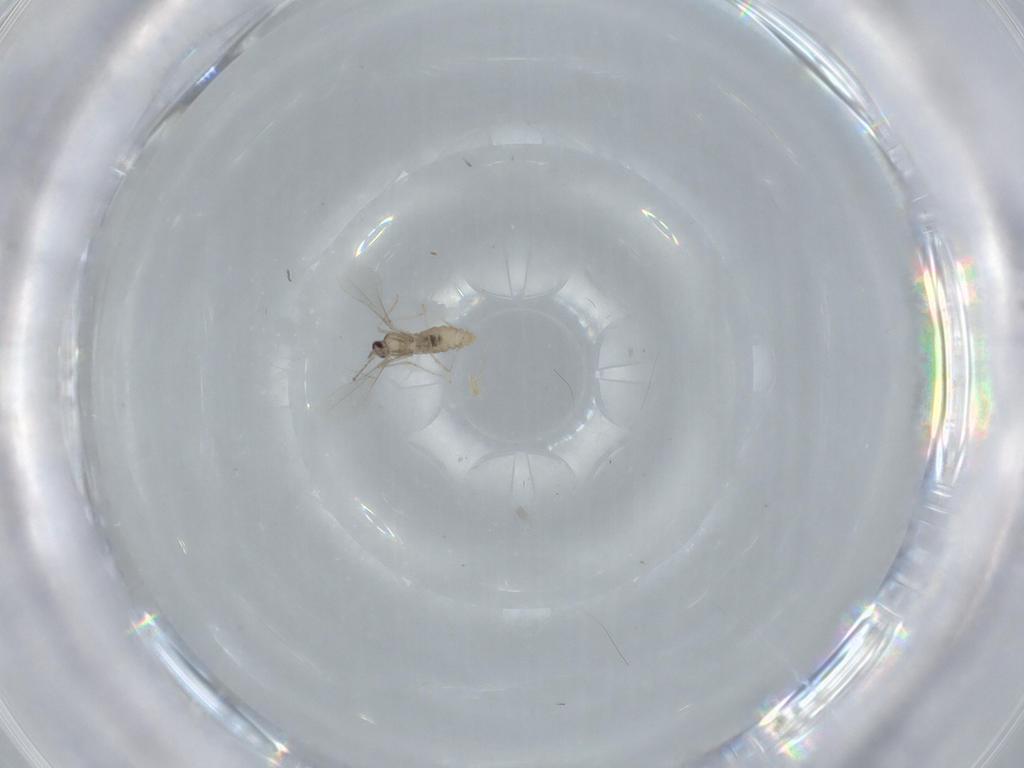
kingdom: Animalia
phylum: Arthropoda
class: Insecta
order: Diptera
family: Cecidomyiidae
